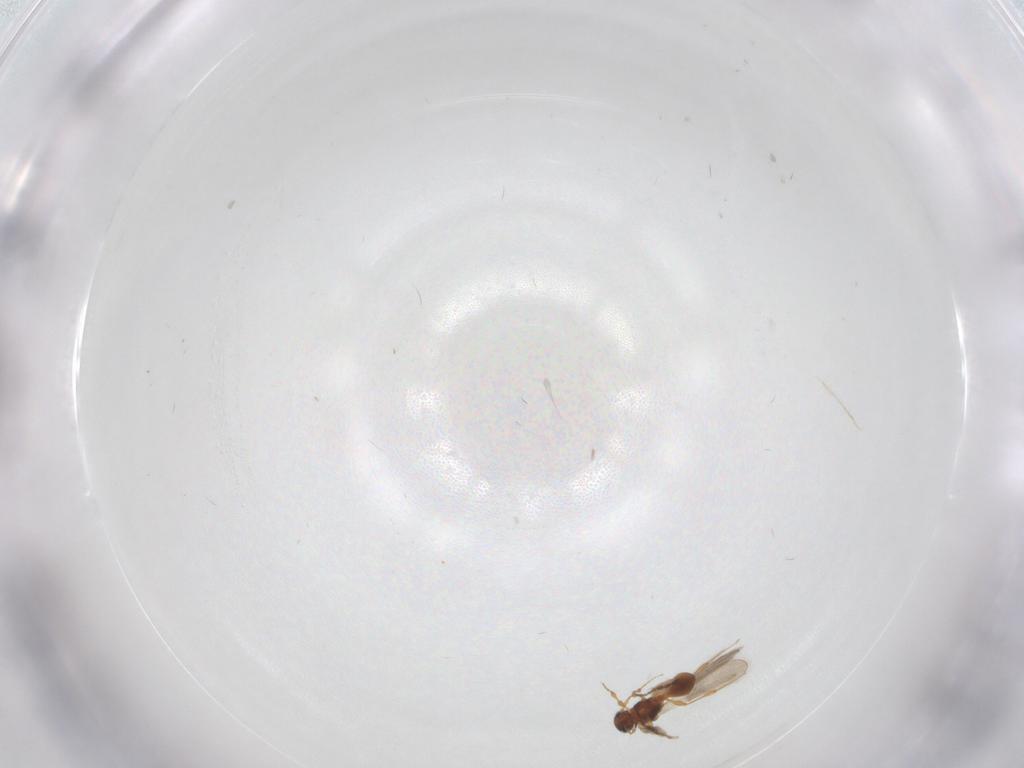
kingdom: Animalia
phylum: Arthropoda
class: Insecta
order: Hymenoptera
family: Platygastridae
